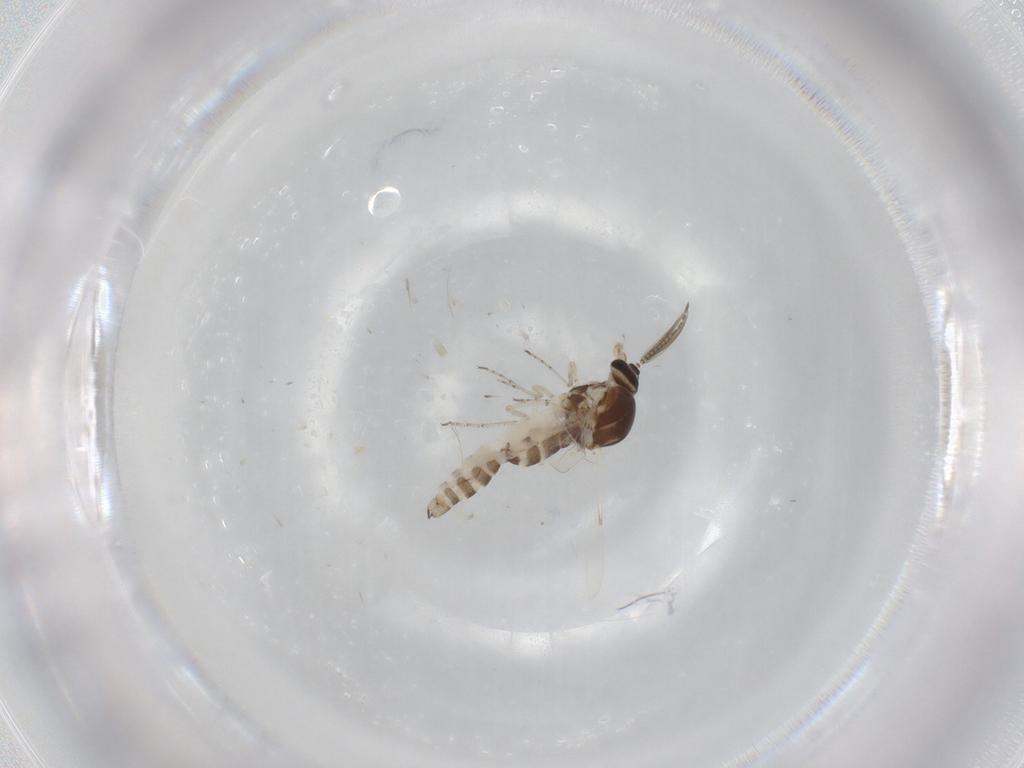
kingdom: Animalia
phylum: Arthropoda
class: Insecta
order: Diptera
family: Ceratopogonidae
